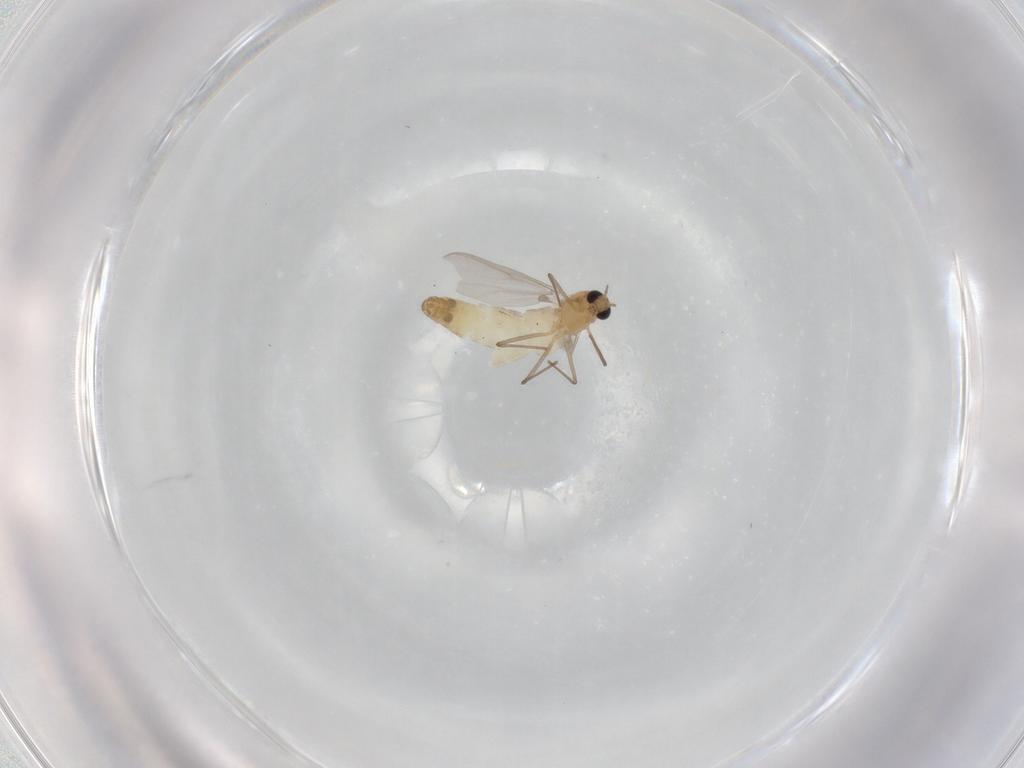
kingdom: Animalia
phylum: Arthropoda
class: Insecta
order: Diptera
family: Chironomidae
